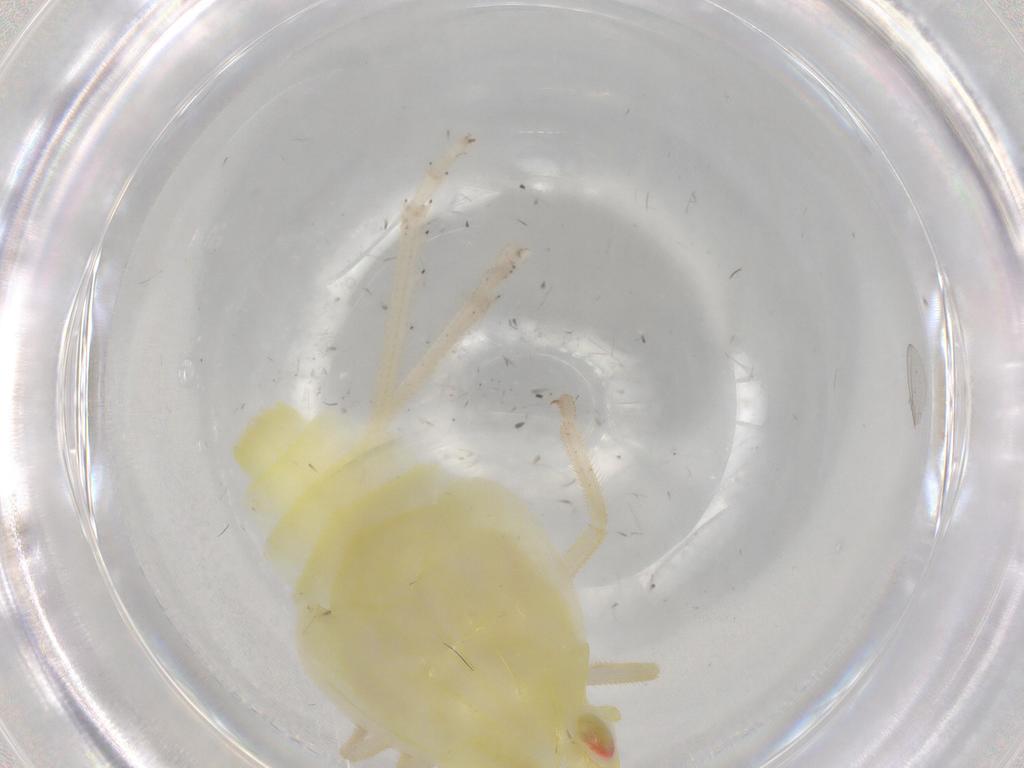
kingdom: Animalia
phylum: Arthropoda
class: Insecta
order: Hemiptera
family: Tropiduchidae
